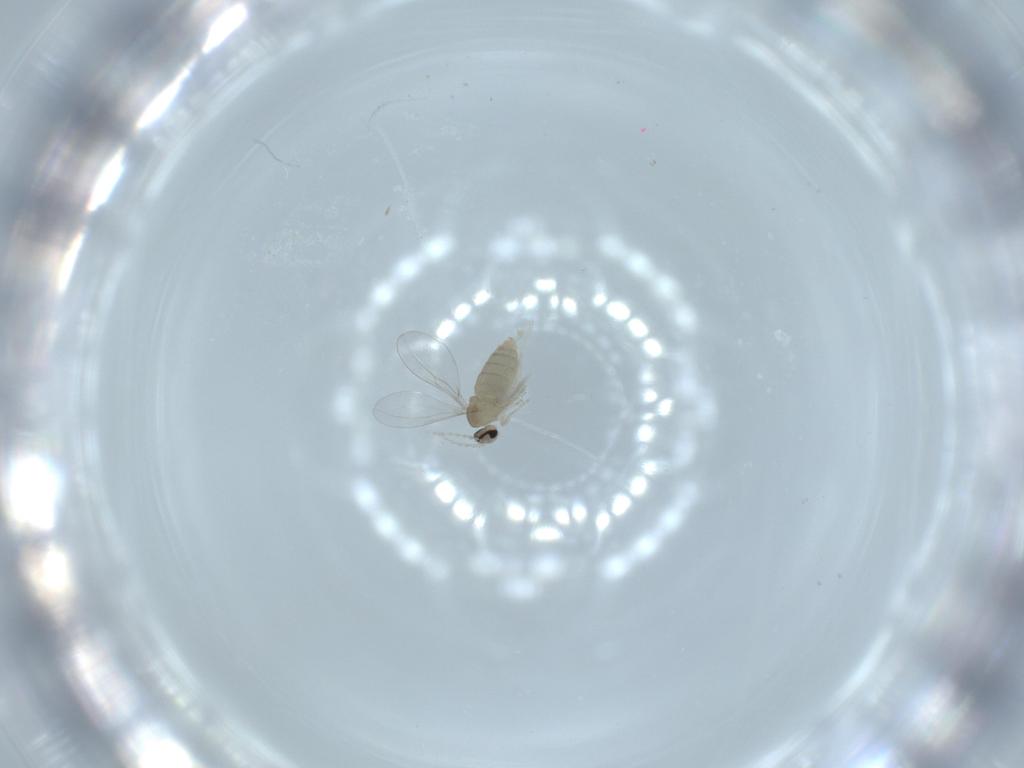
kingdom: Animalia
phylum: Arthropoda
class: Insecta
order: Diptera
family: Cecidomyiidae
